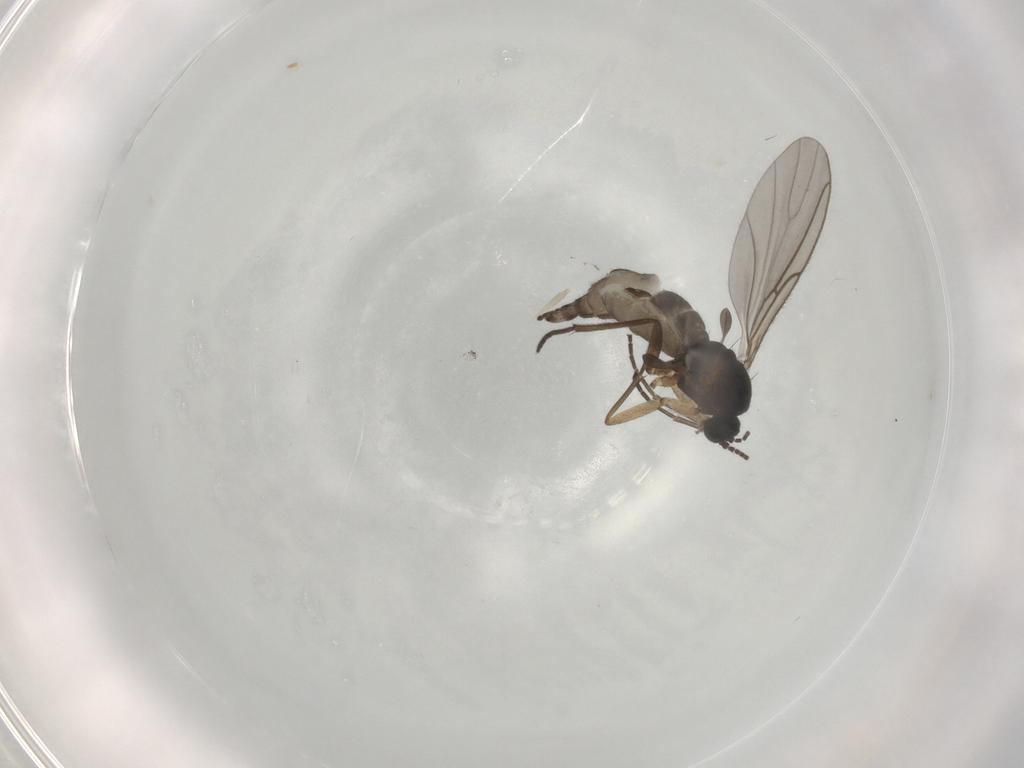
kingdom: Animalia
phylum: Arthropoda
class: Insecta
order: Diptera
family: Sciaridae
